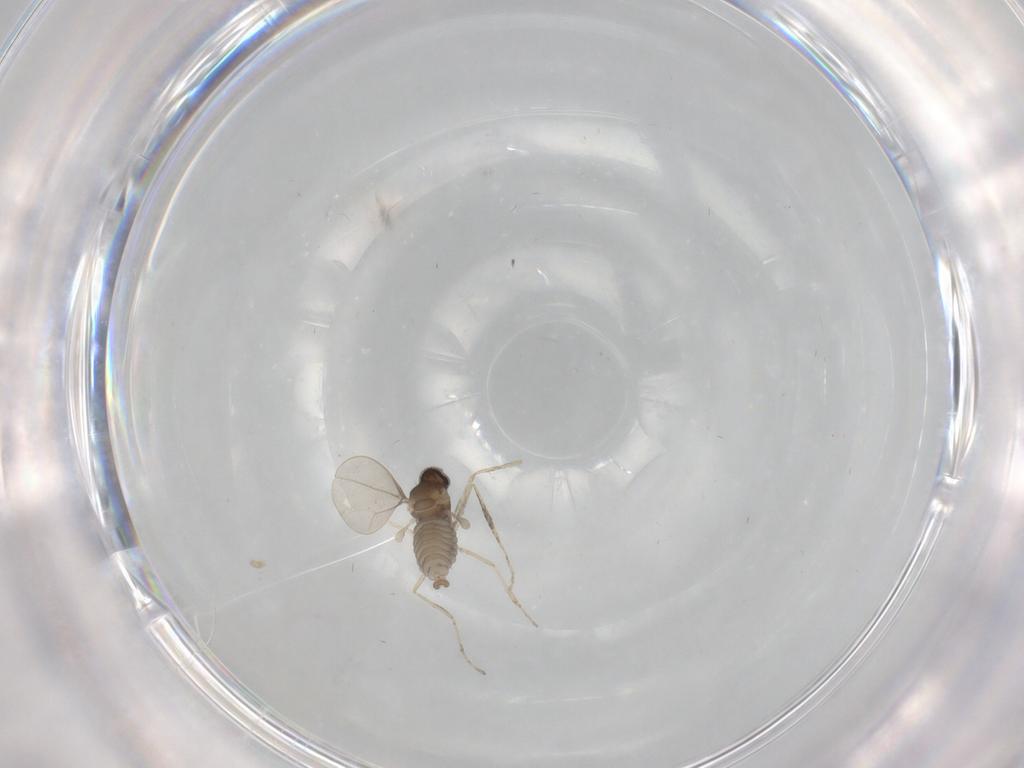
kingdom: Animalia
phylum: Arthropoda
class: Insecta
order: Diptera
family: Cecidomyiidae
